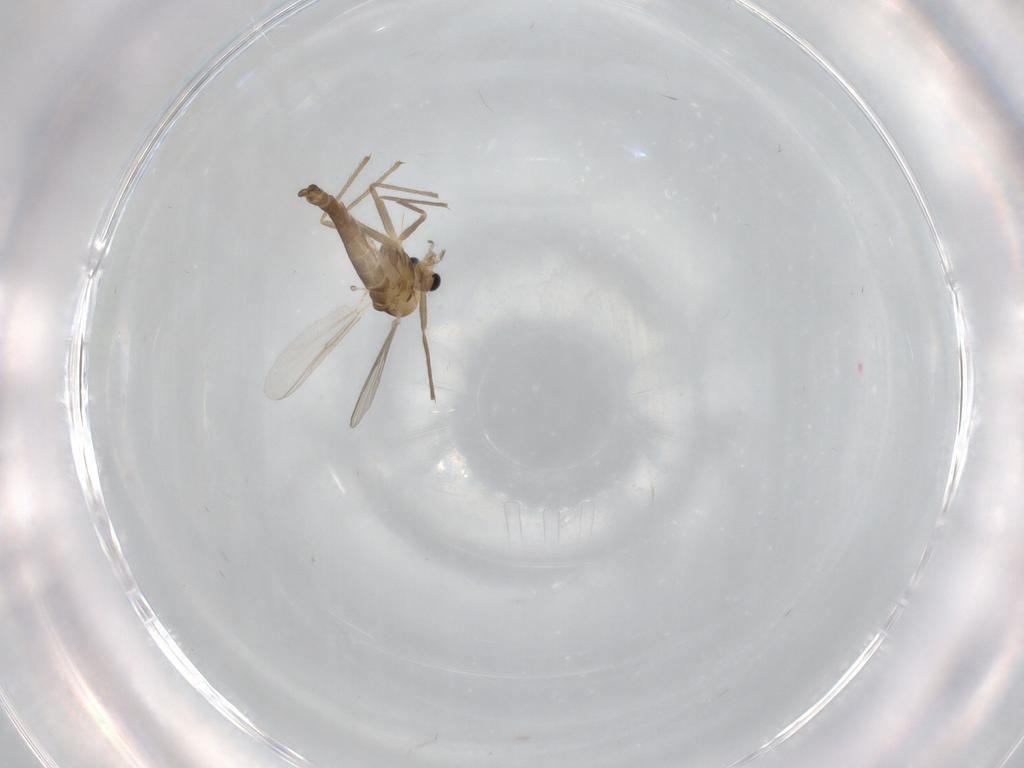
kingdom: Animalia
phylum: Arthropoda
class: Insecta
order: Diptera
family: Chironomidae
